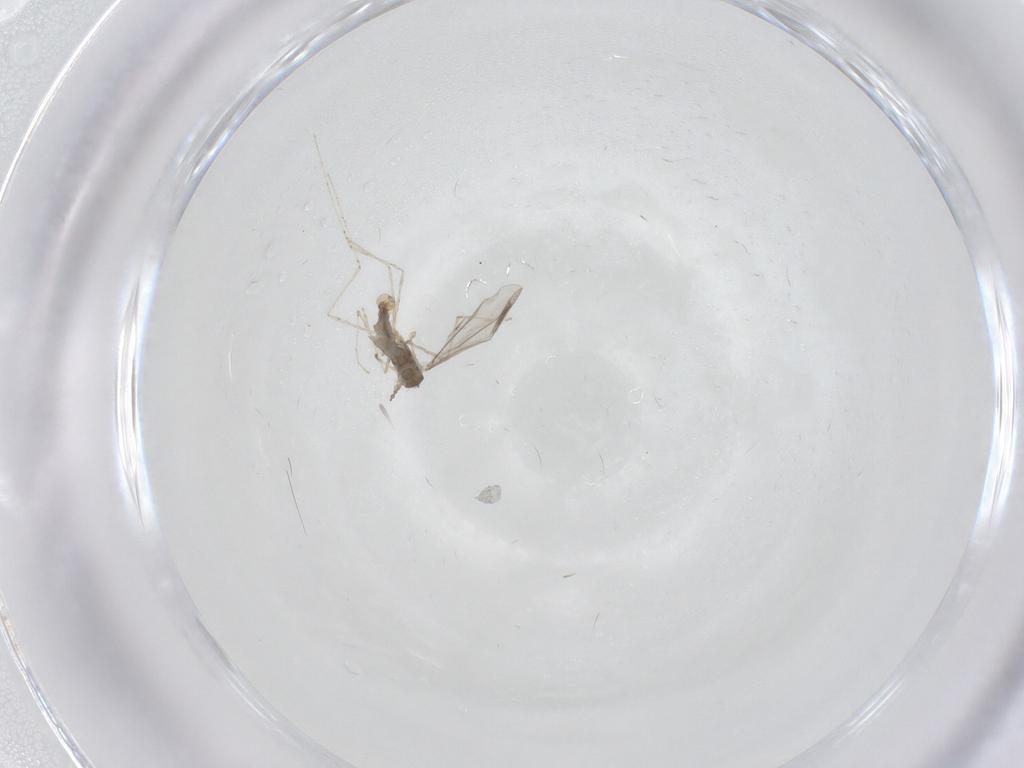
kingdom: Animalia
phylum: Arthropoda
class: Insecta
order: Diptera
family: Cecidomyiidae
